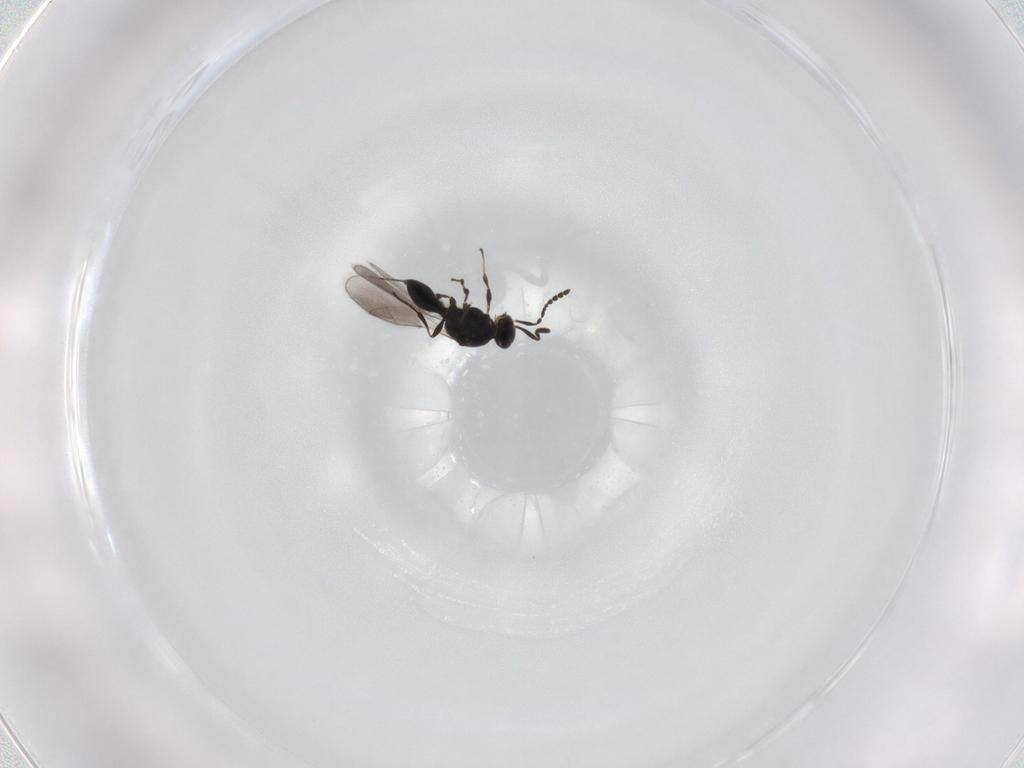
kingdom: Animalia
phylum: Arthropoda
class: Insecta
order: Hymenoptera
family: Platygastridae
